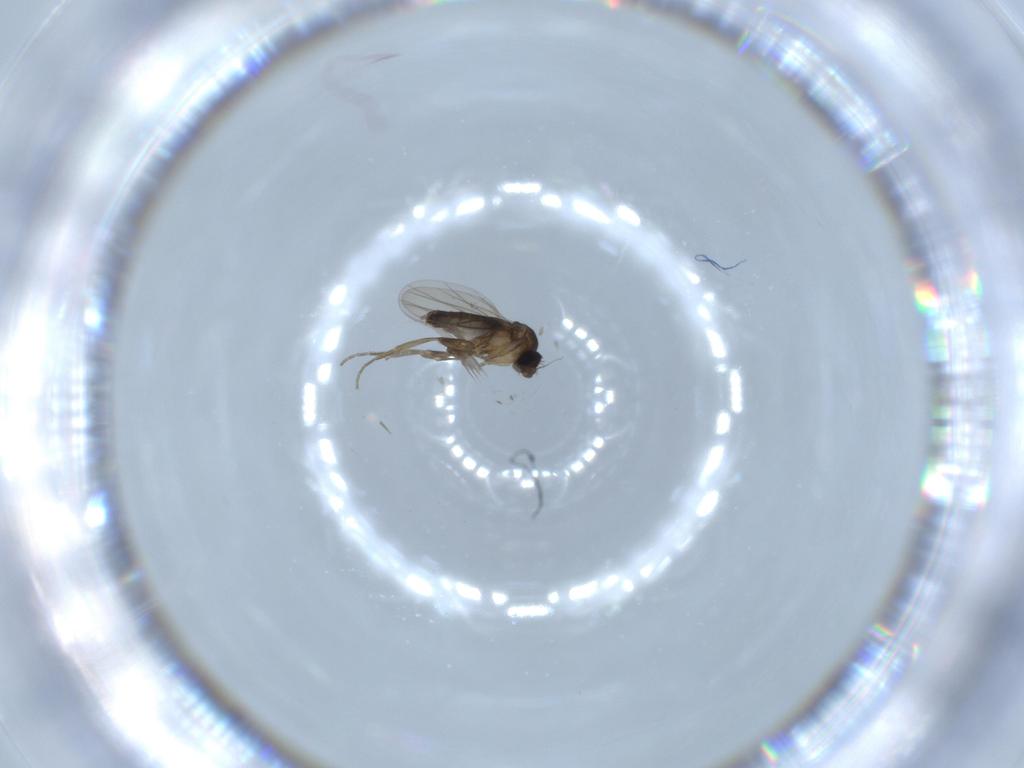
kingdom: Animalia
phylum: Arthropoda
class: Insecta
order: Diptera
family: Phoridae
